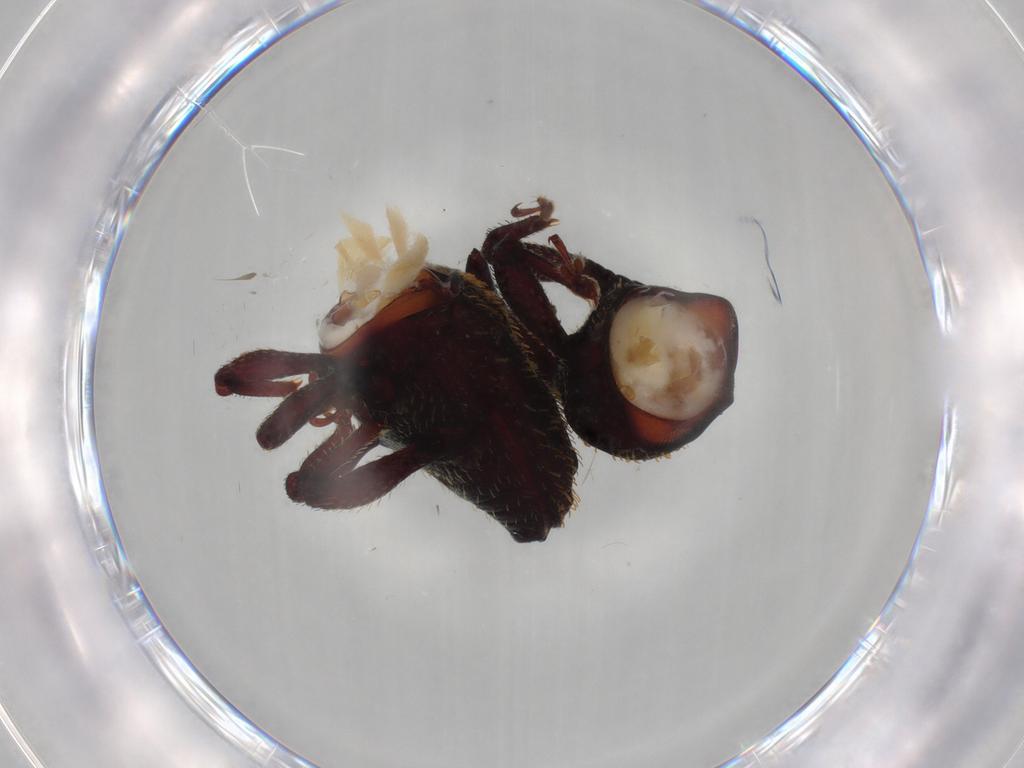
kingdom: Animalia
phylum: Arthropoda
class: Insecta
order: Coleoptera
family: Curculionidae
